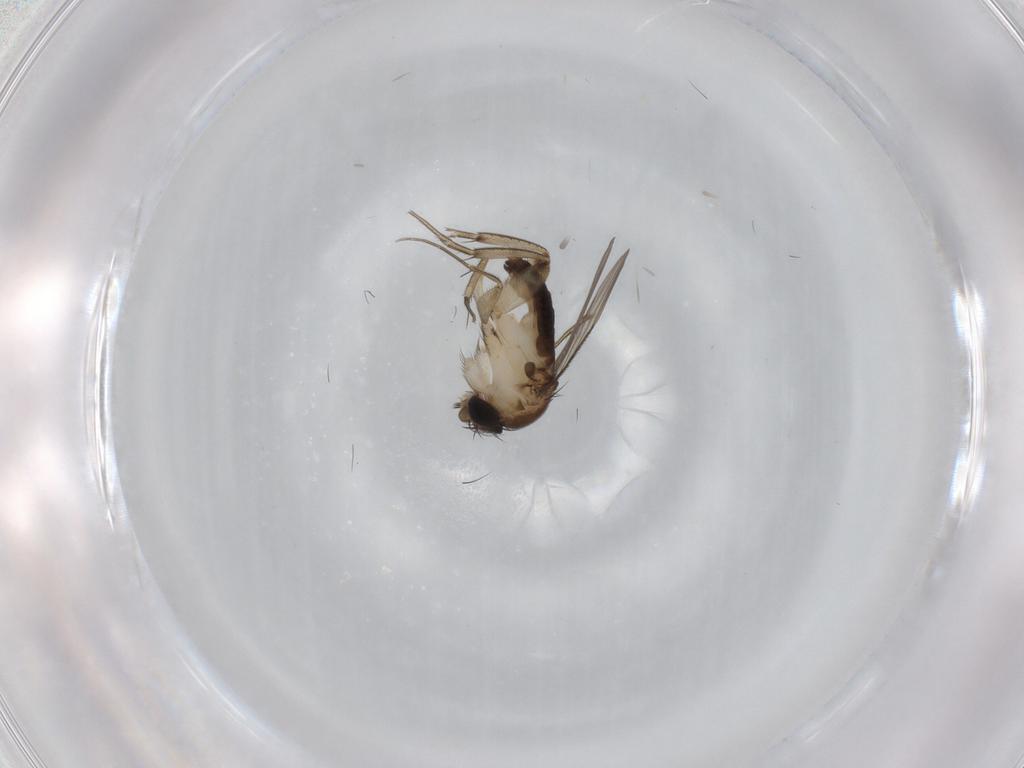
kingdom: Animalia
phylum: Arthropoda
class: Insecta
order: Diptera
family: Phoridae
